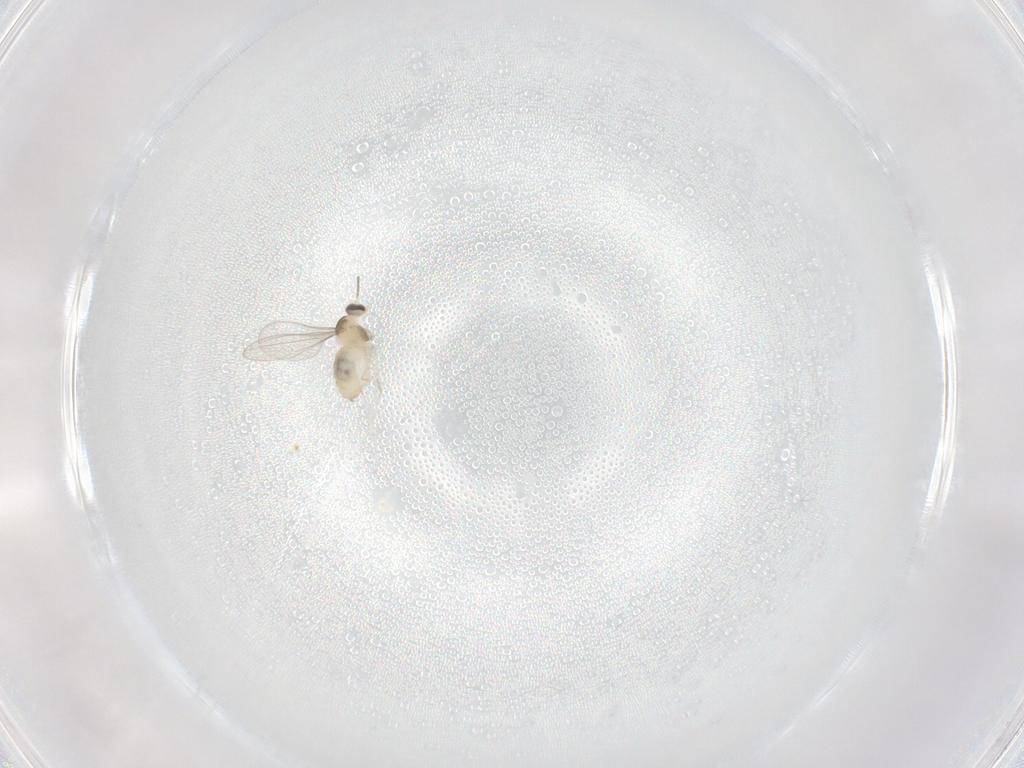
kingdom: Animalia
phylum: Arthropoda
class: Insecta
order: Diptera
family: Cecidomyiidae
